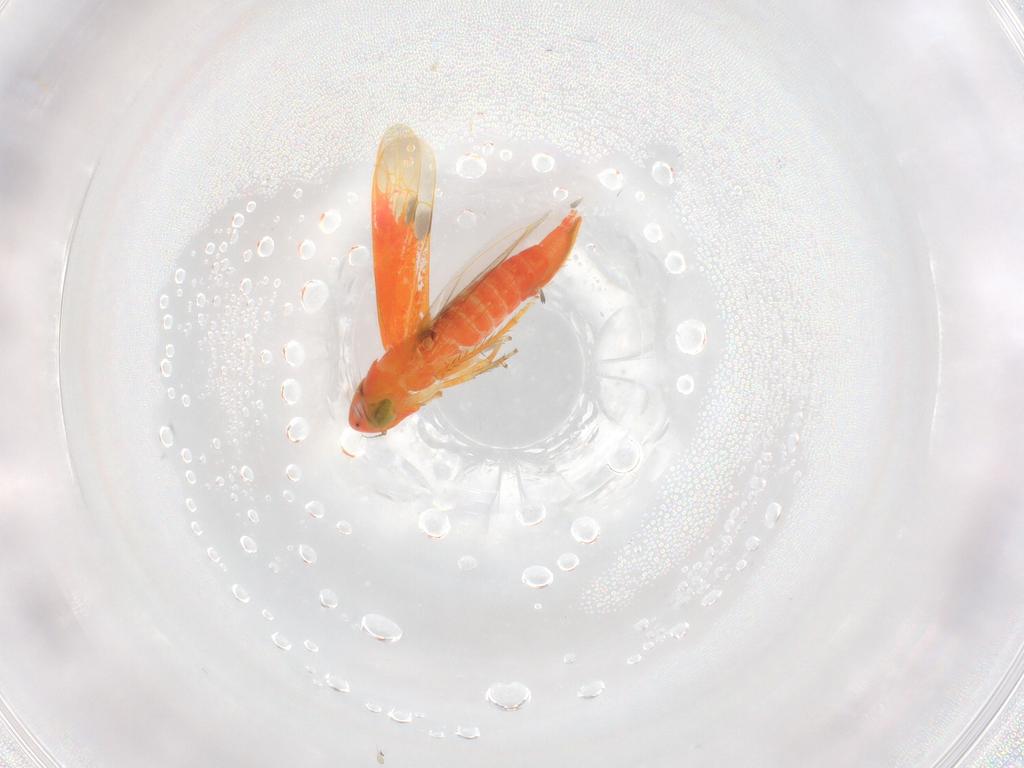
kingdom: Animalia
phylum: Arthropoda
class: Insecta
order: Hemiptera
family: Cicadellidae
